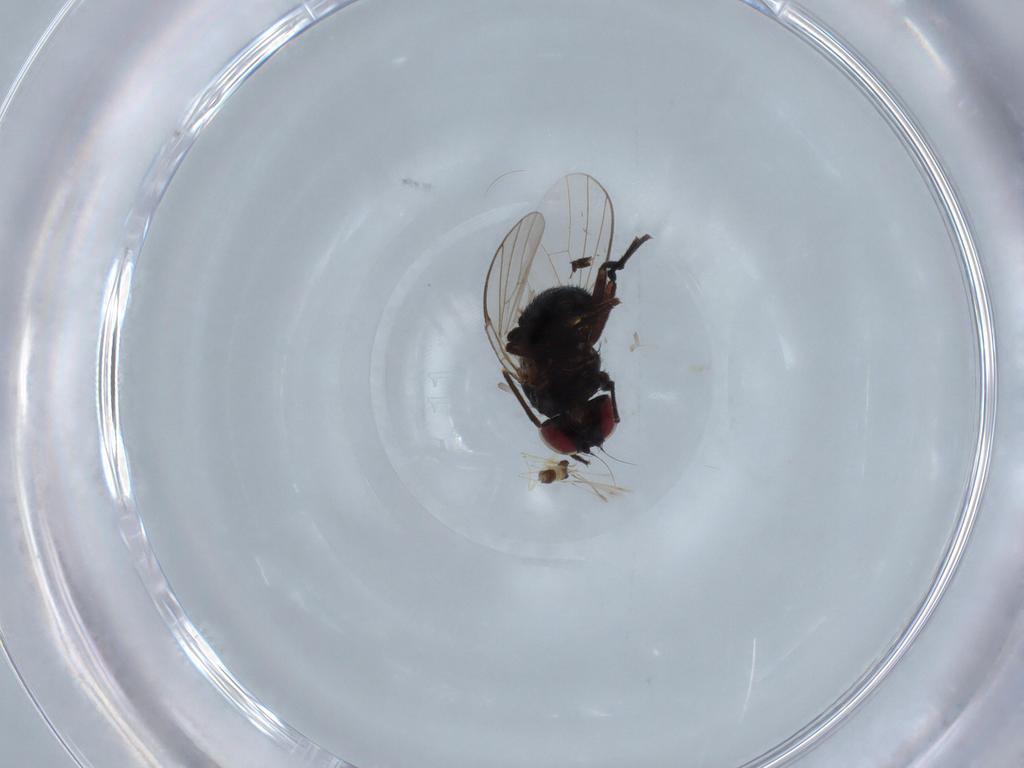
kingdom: Animalia
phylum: Arthropoda
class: Insecta
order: Diptera
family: Agromyzidae
